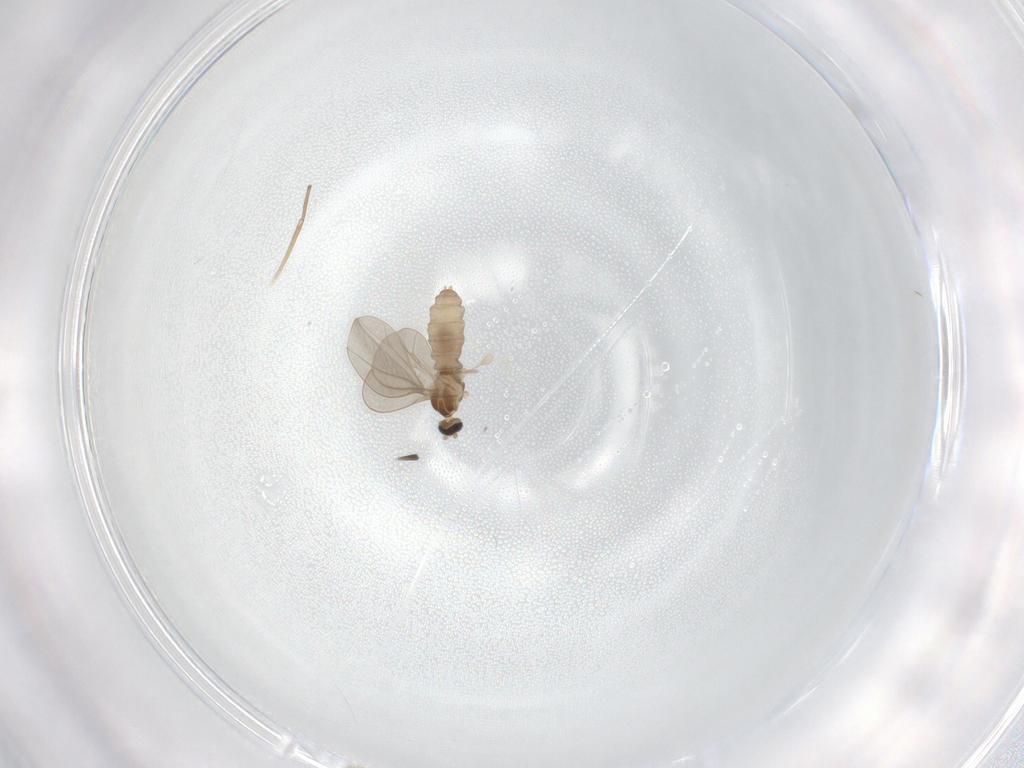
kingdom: Animalia
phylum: Arthropoda
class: Insecta
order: Diptera
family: Cecidomyiidae
